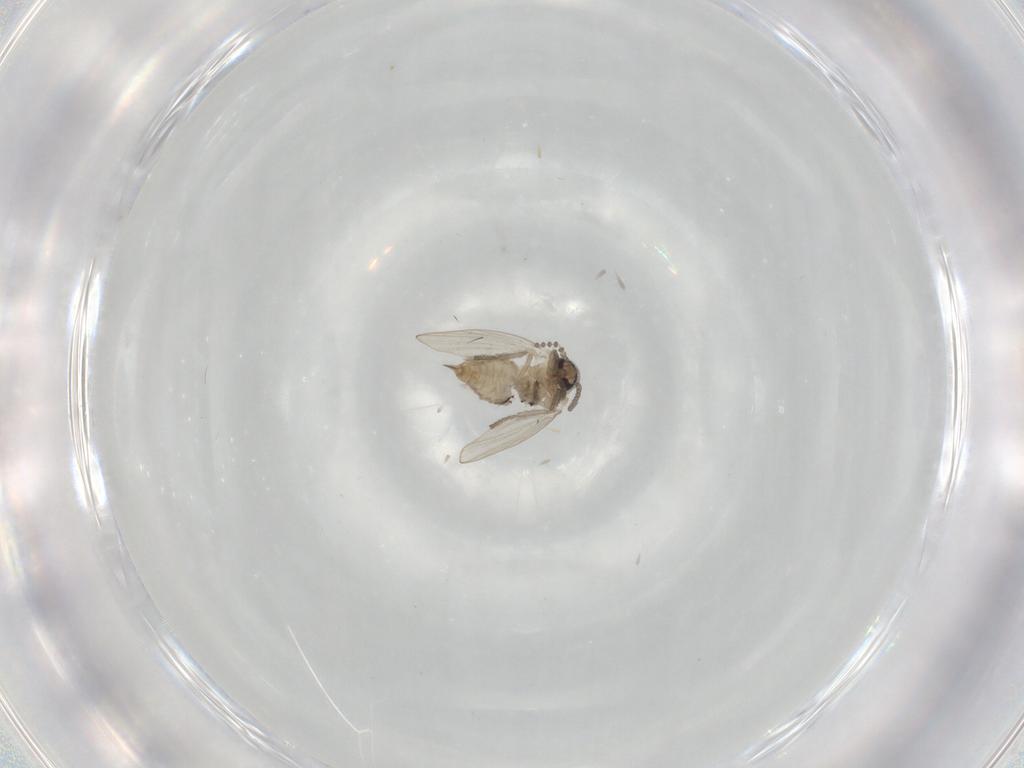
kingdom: Animalia
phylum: Arthropoda
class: Insecta
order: Diptera
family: Psychodidae
